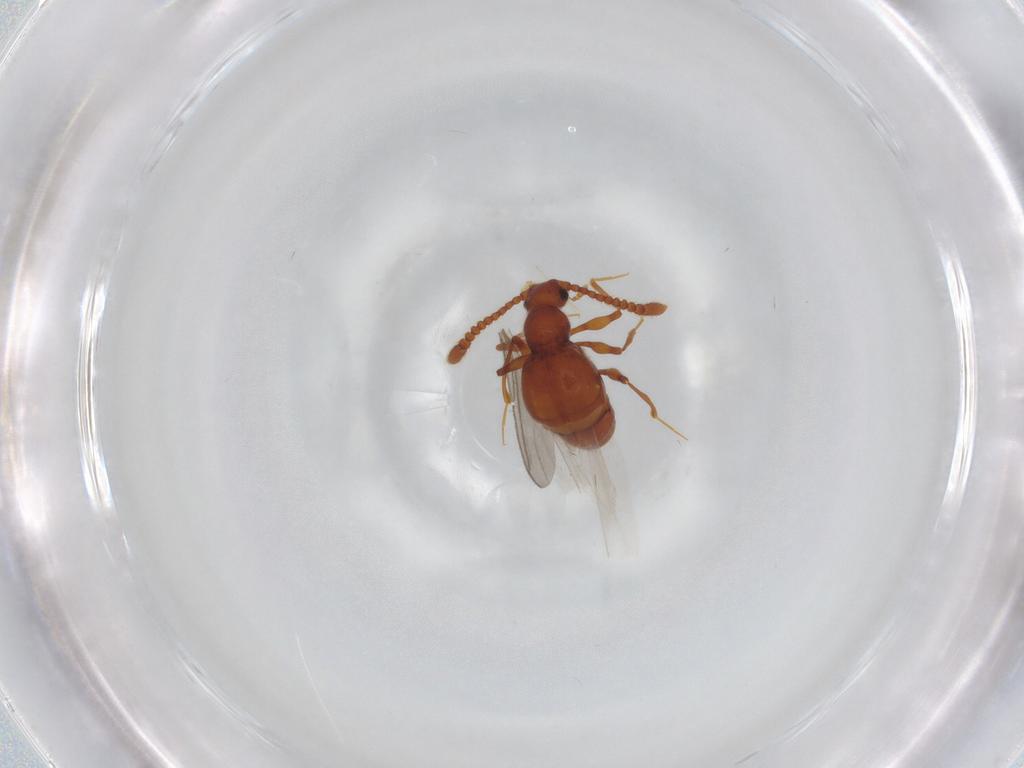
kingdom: Animalia
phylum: Arthropoda
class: Insecta
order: Coleoptera
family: Staphylinidae
